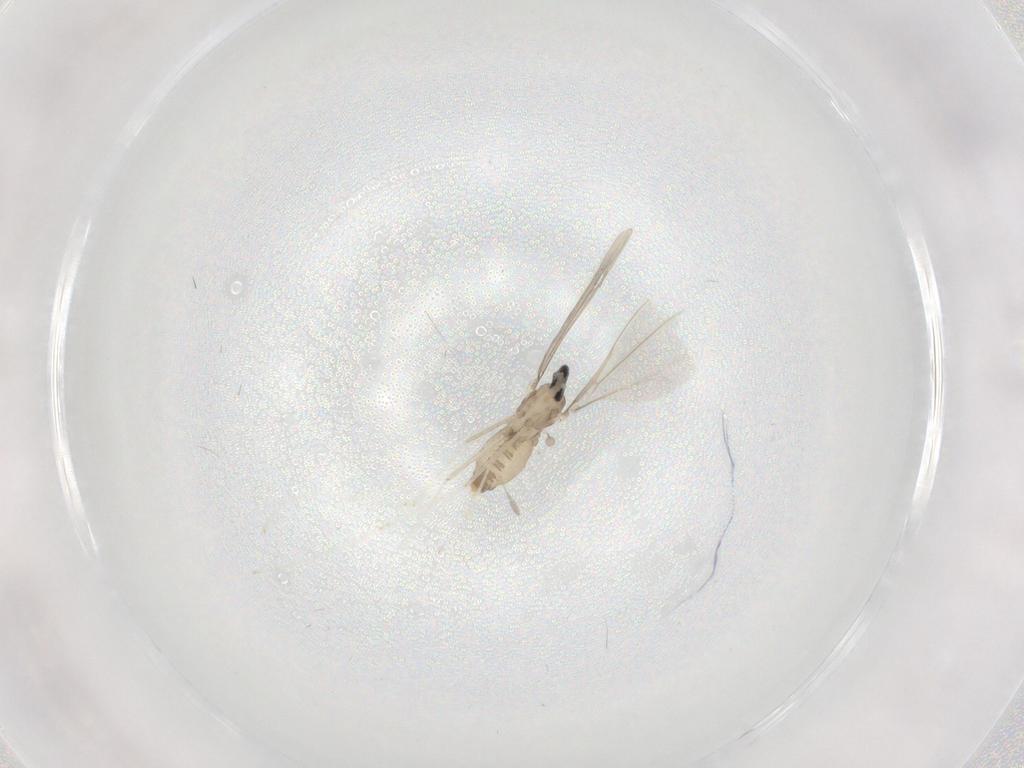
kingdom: Animalia
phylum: Arthropoda
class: Insecta
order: Diptera
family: Cecidomyiidae
